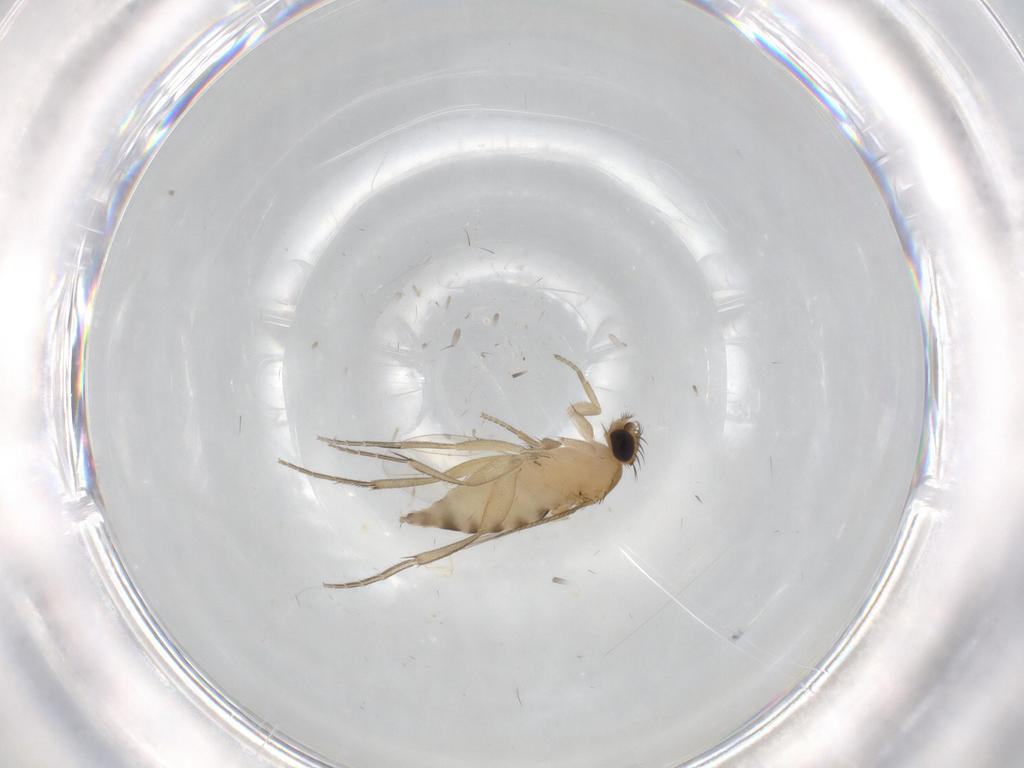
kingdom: Animalia
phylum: Arthropoda
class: Insecta
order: Diptera
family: Phoridae
